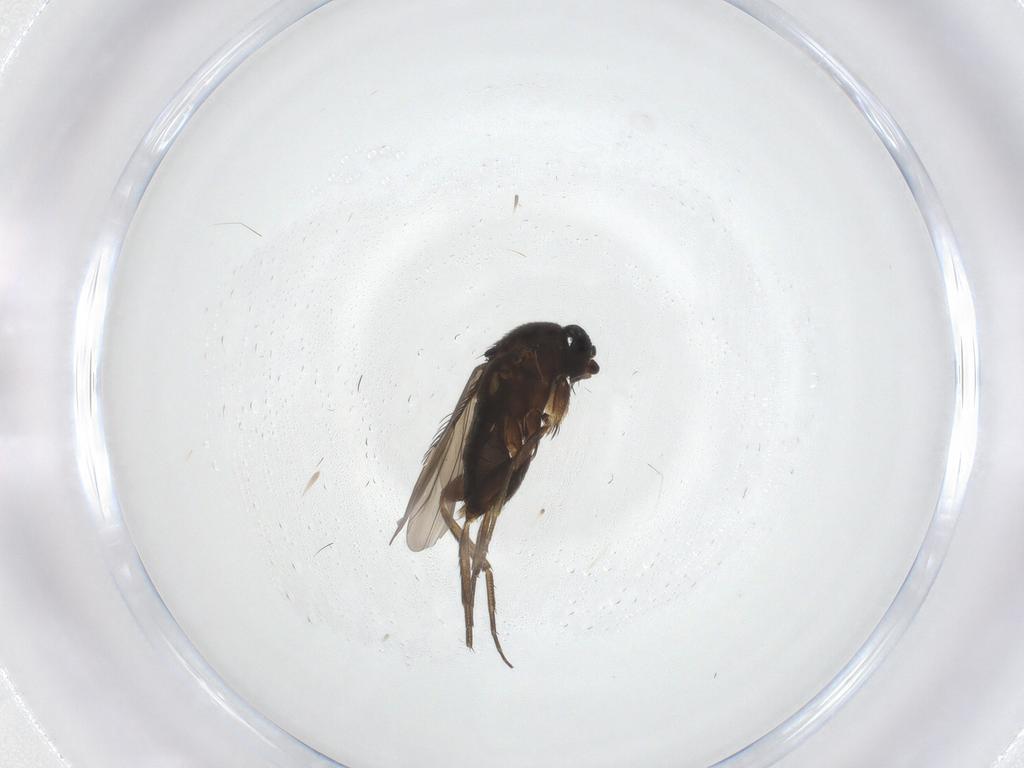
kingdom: Animalia
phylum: Arthropoda
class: Insecta
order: Diptera
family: Phoridae
